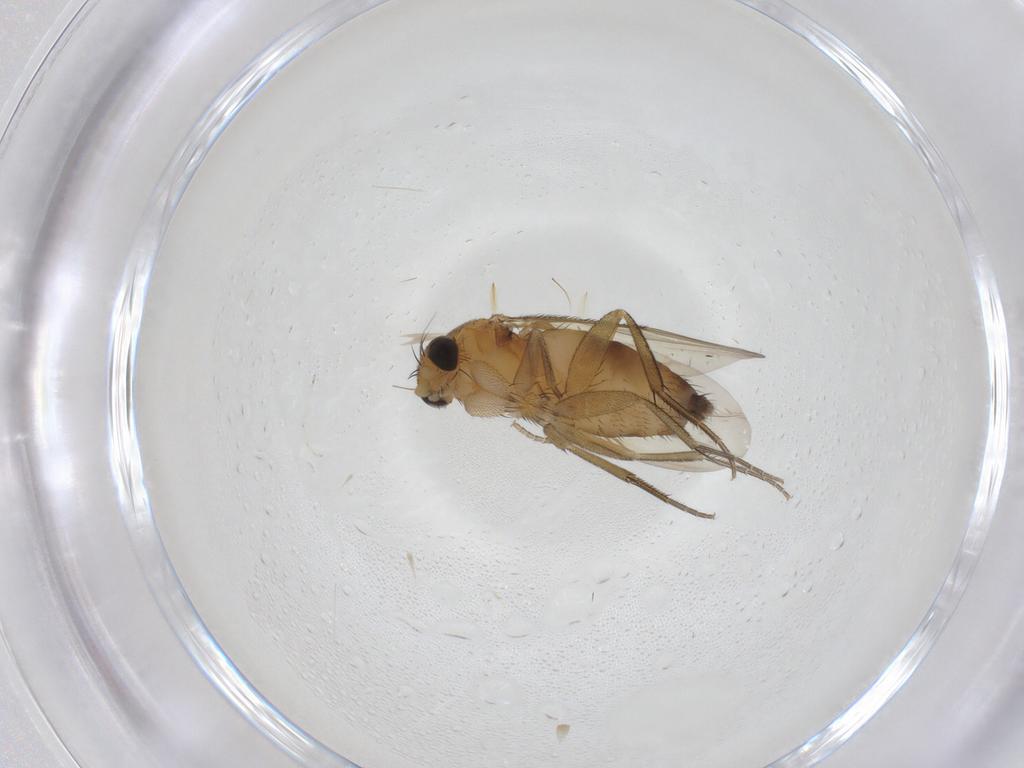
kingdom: Animalia
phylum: Arthropoda
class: Insecta
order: Diptera
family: Phoridae
